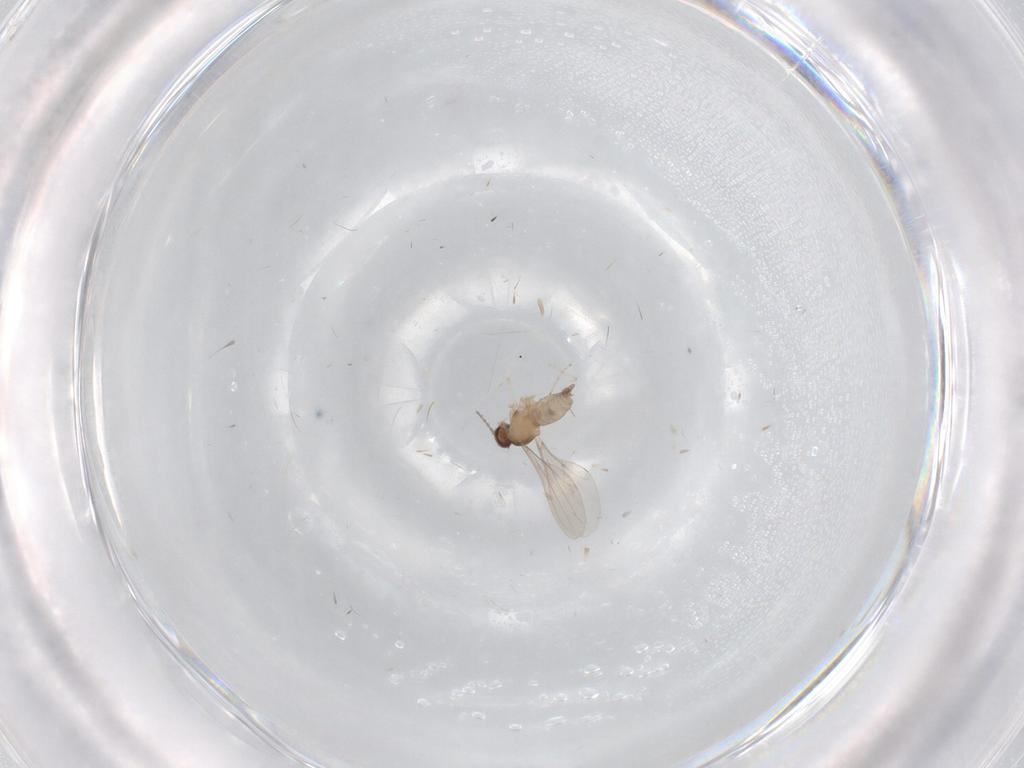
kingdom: Animalia
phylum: Arthropoda
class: Insecta
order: Diptera
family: Cecidomyiidae
